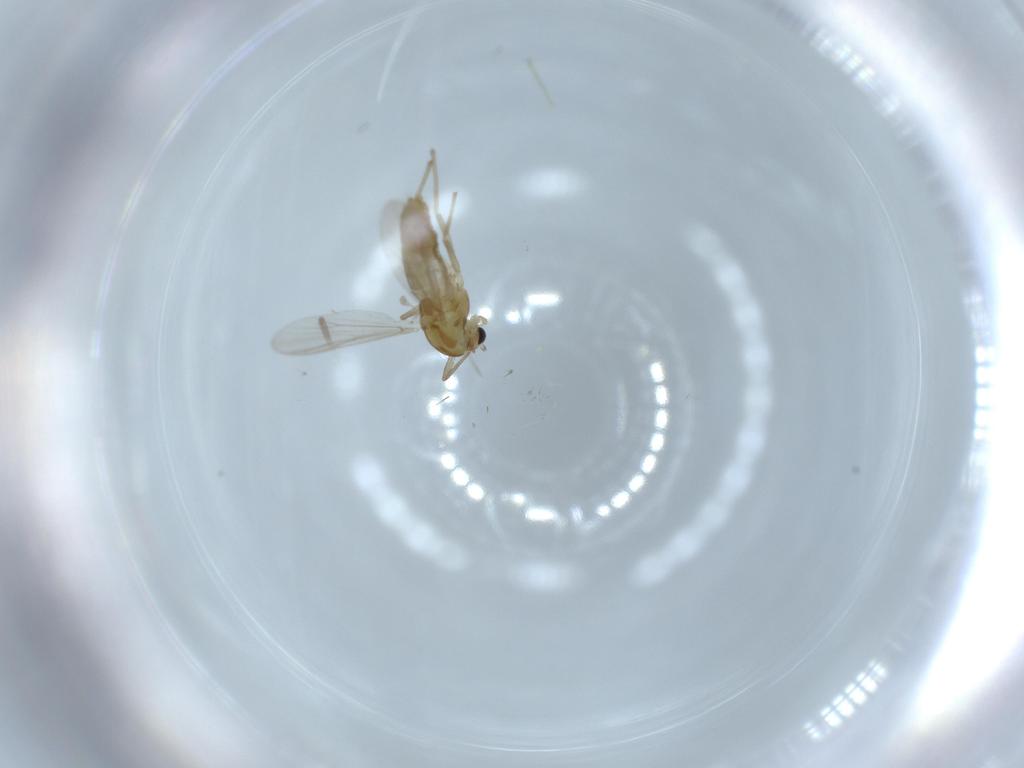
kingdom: Animalia
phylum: Arthropoda
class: Insecta
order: Diptera
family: Chironomidae
